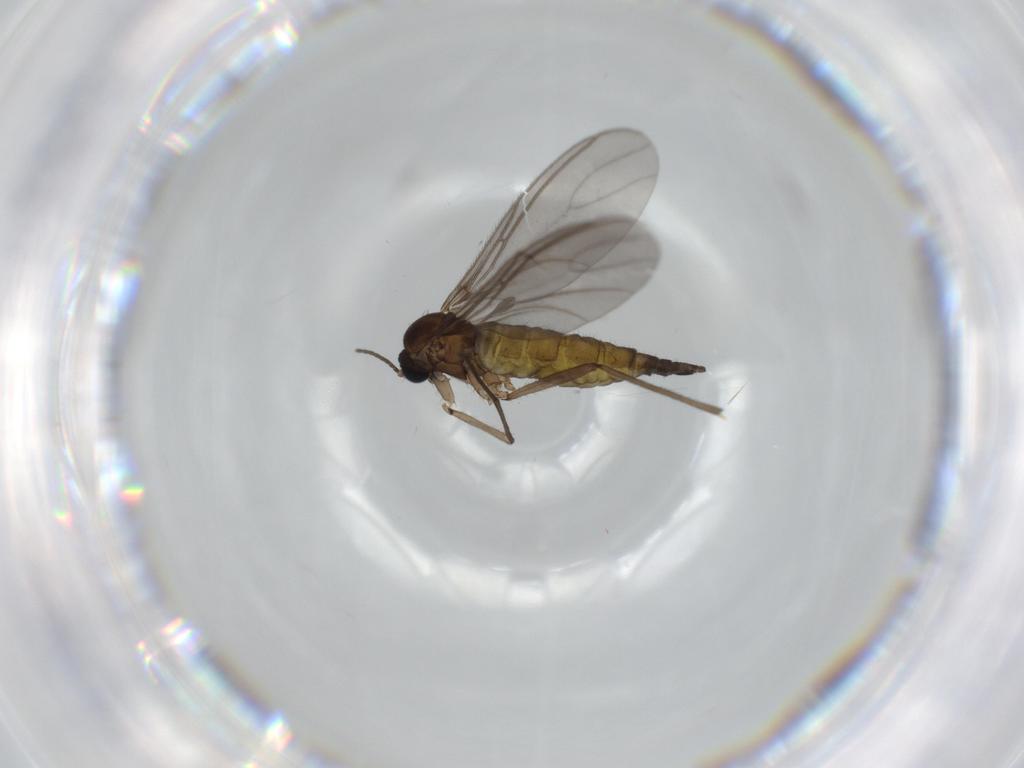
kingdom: Animalia
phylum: Arthropoda
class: Insecta
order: Diptera
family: Sciaridae
